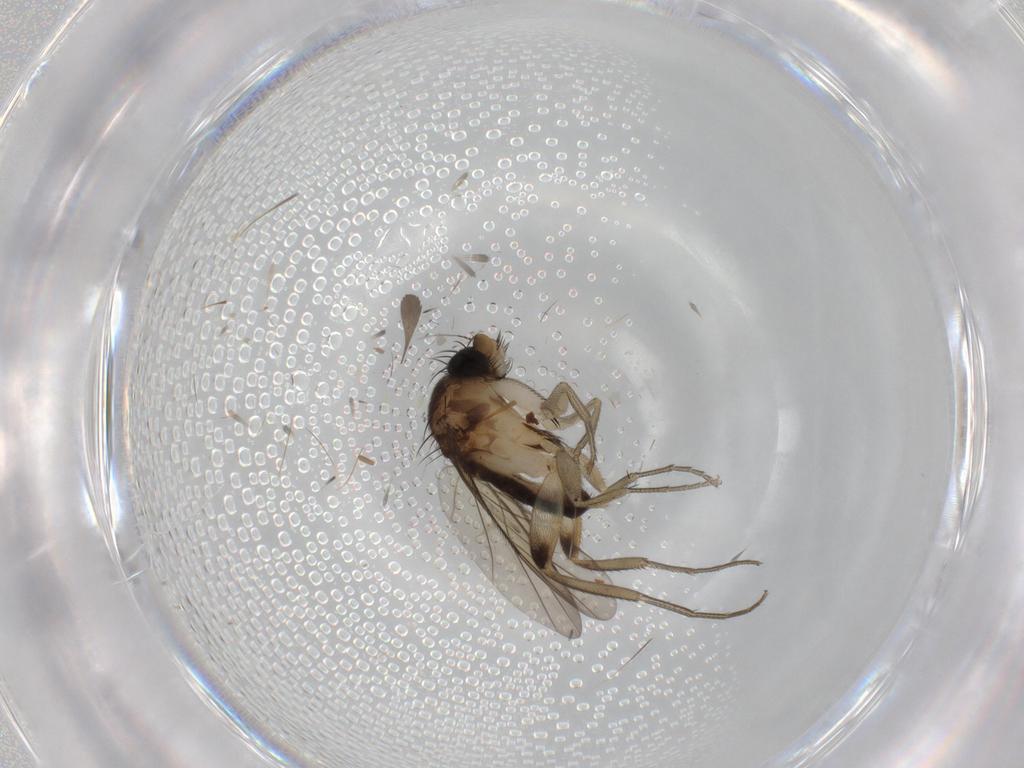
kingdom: Animalia
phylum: Arthropoda
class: Insecta
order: Diptera
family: Phoridae
